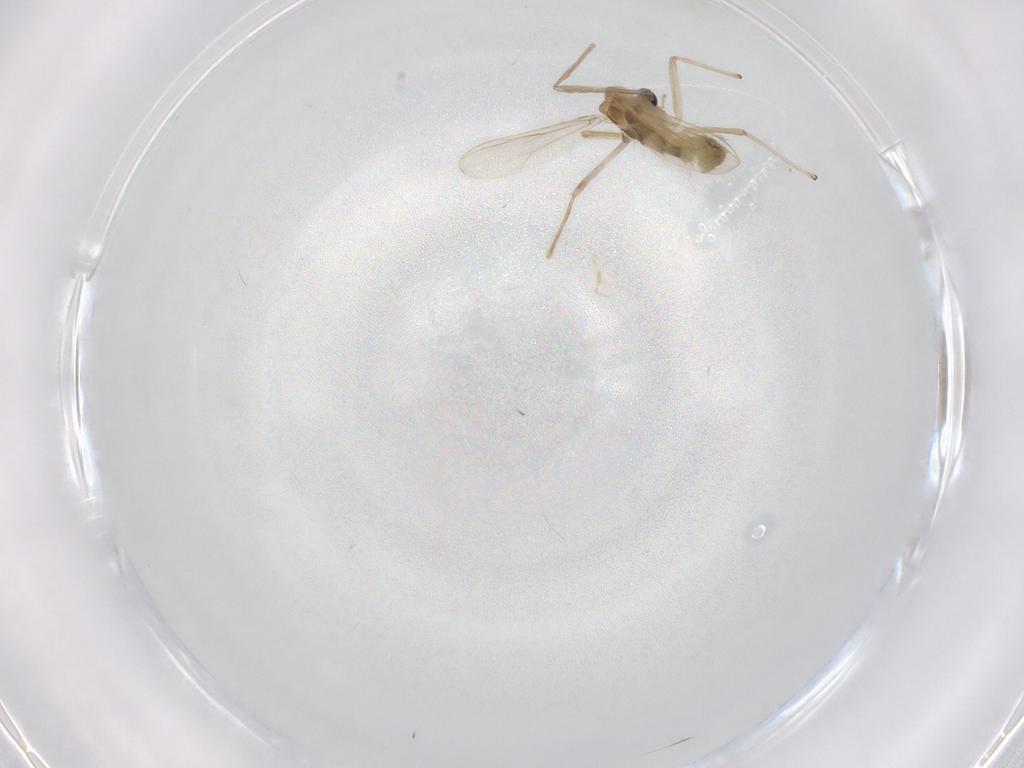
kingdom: Animalia
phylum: Arthropoda
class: Insecta
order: Diptera
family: Chironomidae
